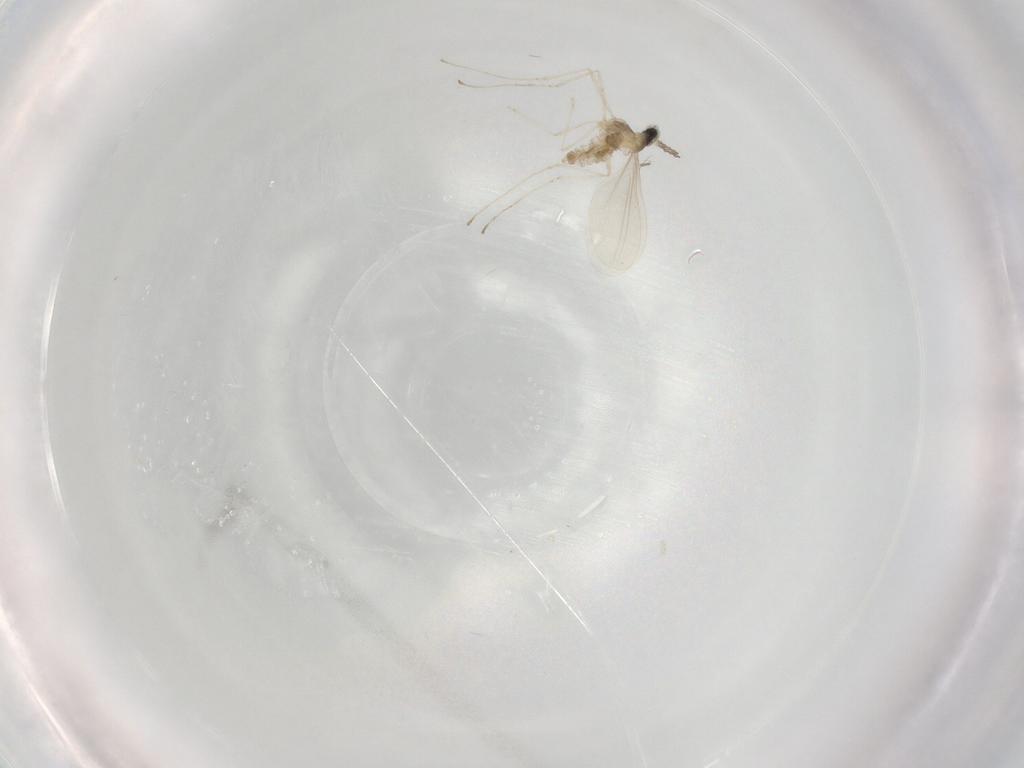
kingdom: Animalia
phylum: Arthropoda
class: Insecta
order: Diptera
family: Cecidomyiidae
